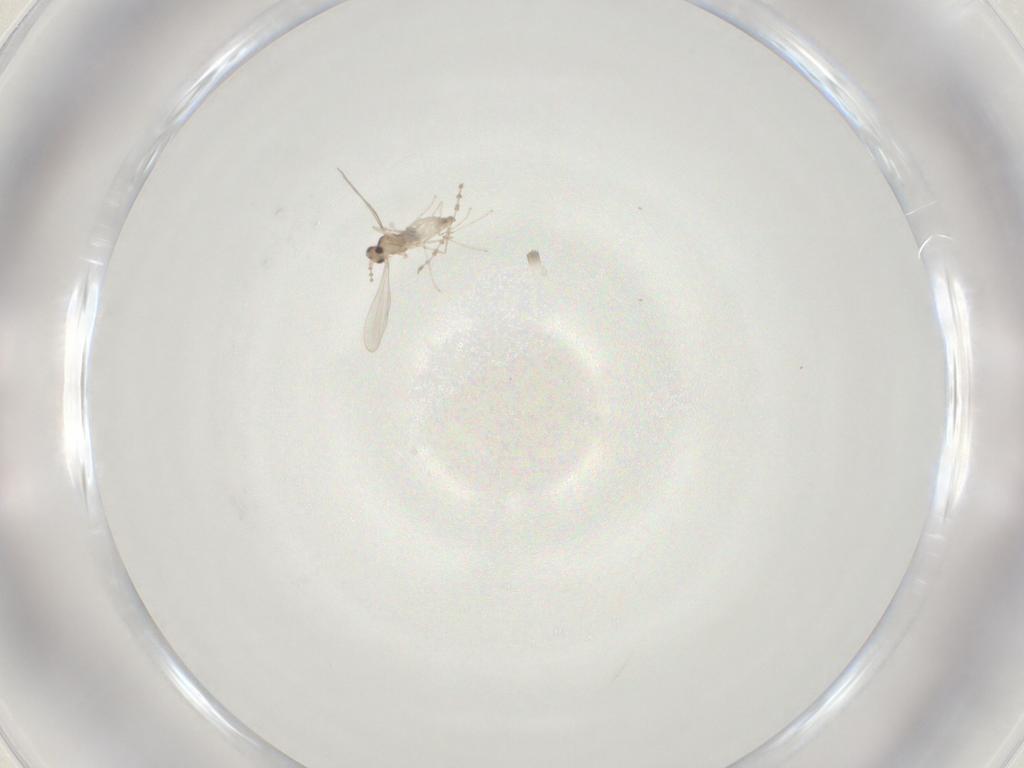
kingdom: Animalia
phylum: Arthropoda
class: Insecta
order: Diptera
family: Cecidomyiidae
